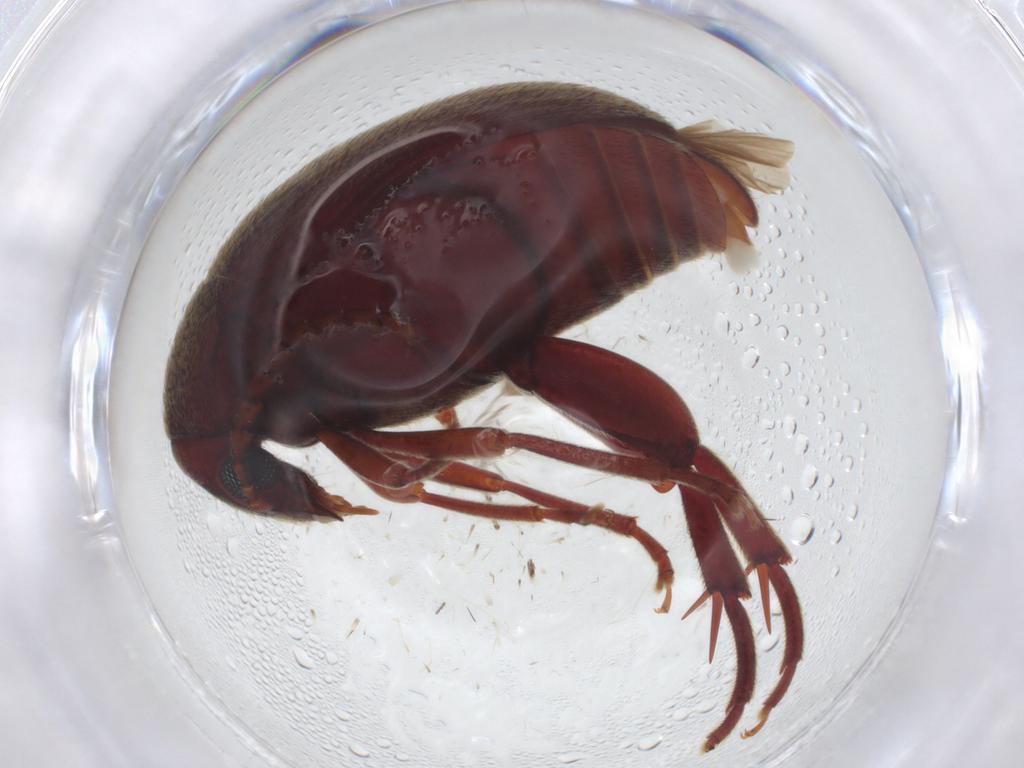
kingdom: Animalia
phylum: Arthropoda
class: Insecta
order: Coleoptera
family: Chrysomelidae
